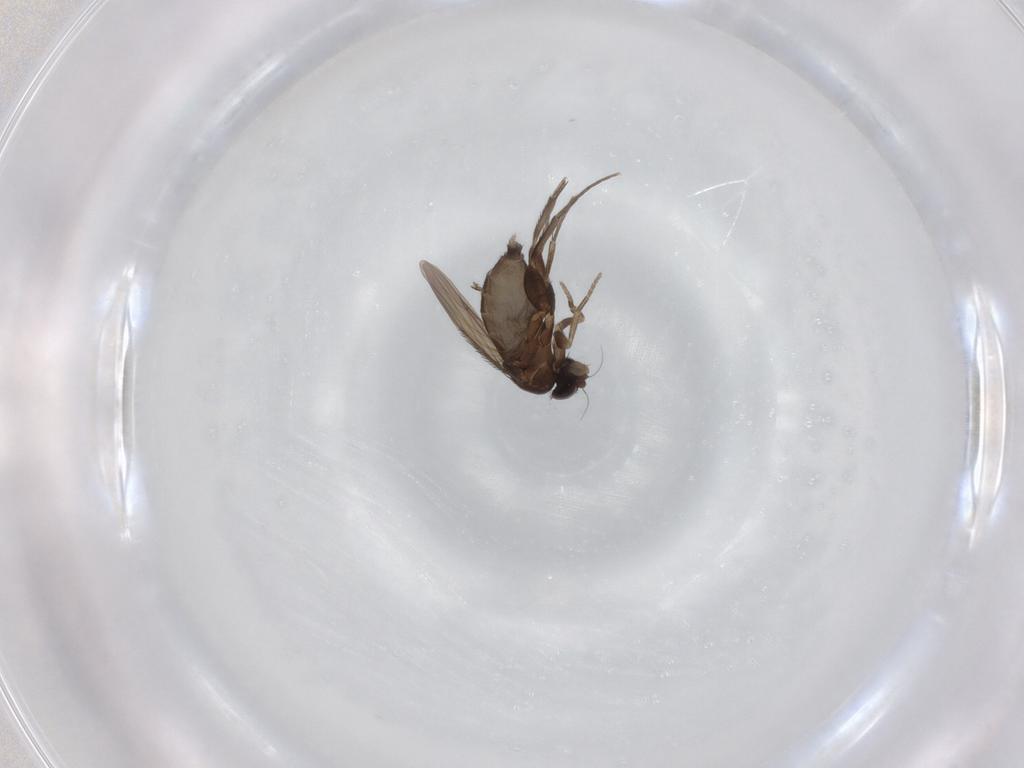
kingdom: Animalia
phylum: Arthropoda
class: Insecta
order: Diptera
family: Phoridae
